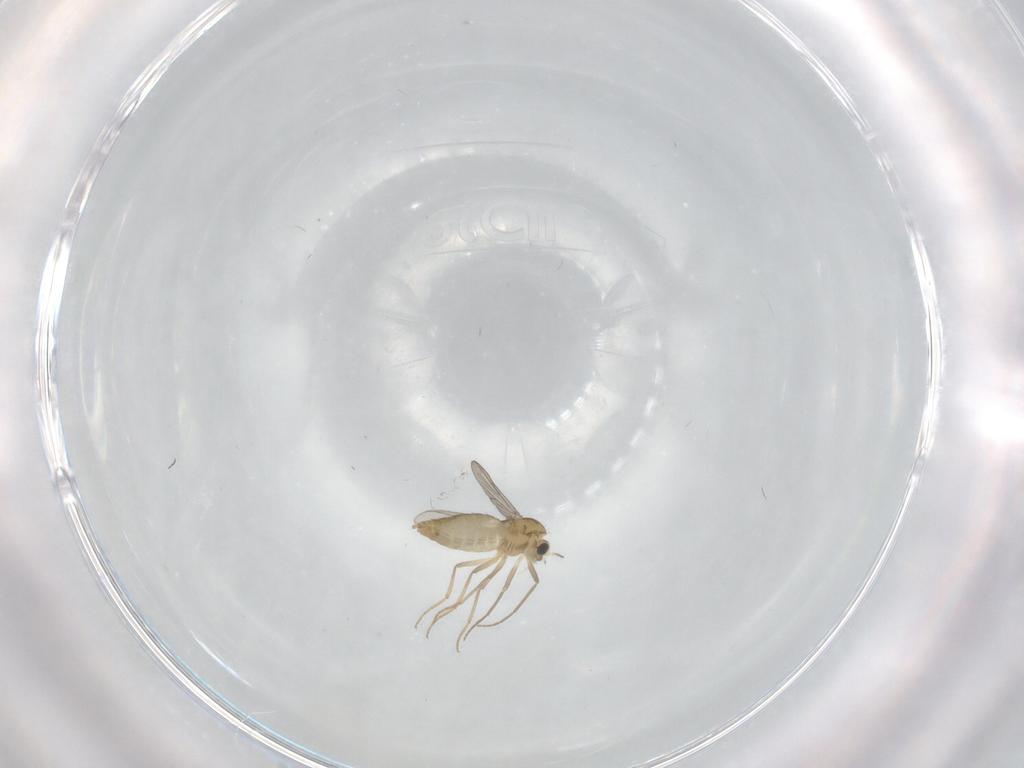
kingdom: Animalia
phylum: Arthropoda
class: Insecta
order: Diptera
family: Chironomidae
